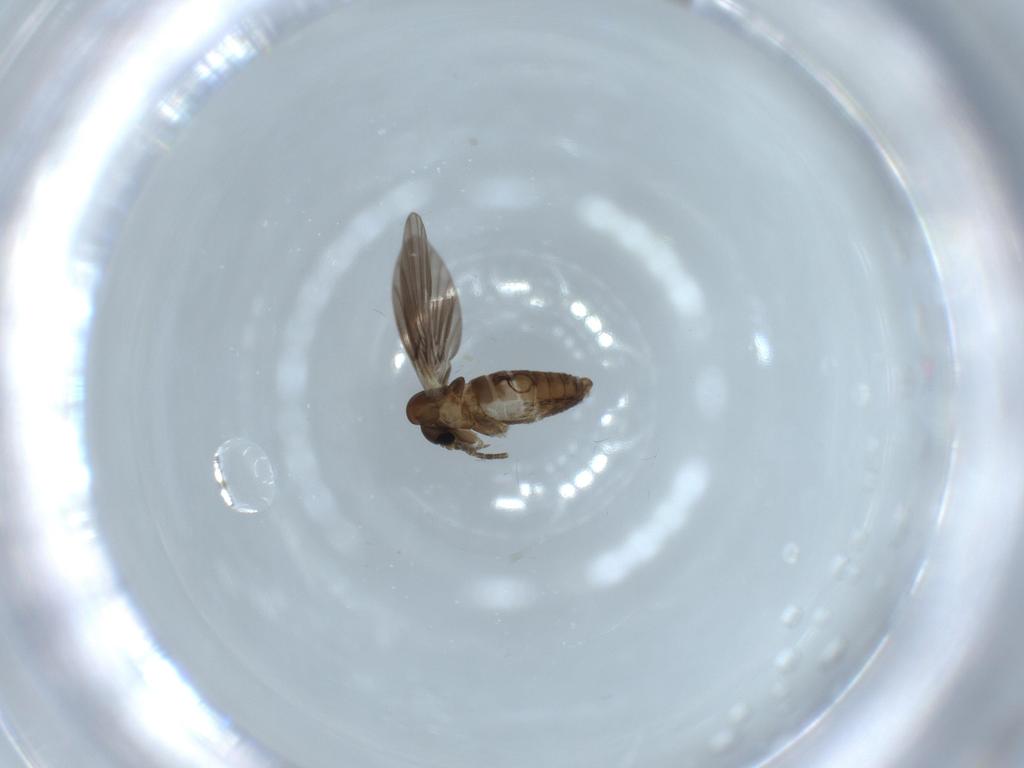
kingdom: Animalia
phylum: Arthropoda
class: Insecta
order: Diptera
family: Psychodidae
